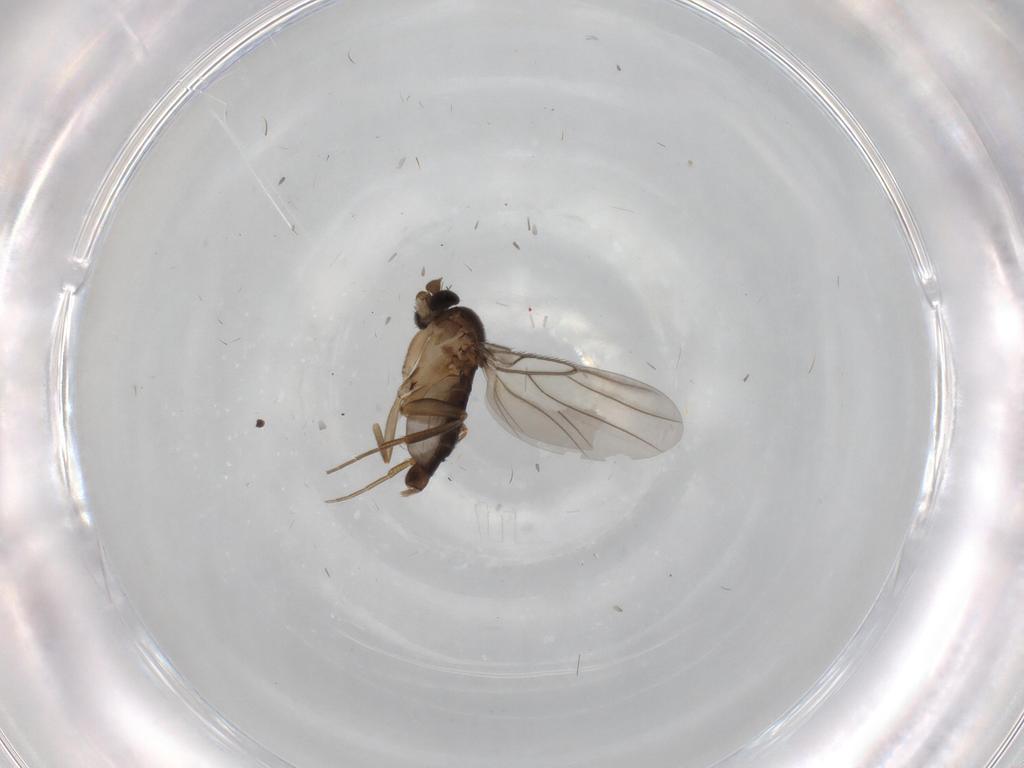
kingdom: Animalia
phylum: Arthropoda
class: Insecta
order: Diptera
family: Phoridae
